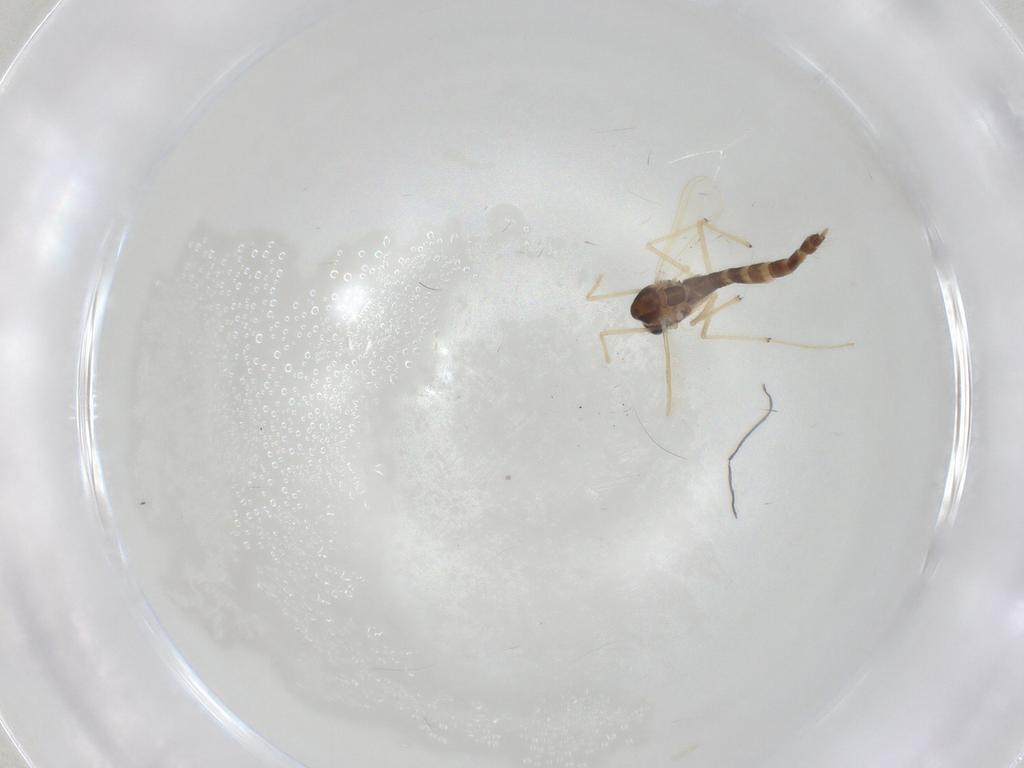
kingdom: Animalia
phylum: Arthropoda
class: Insecta
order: Diptera
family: Chironomidae
